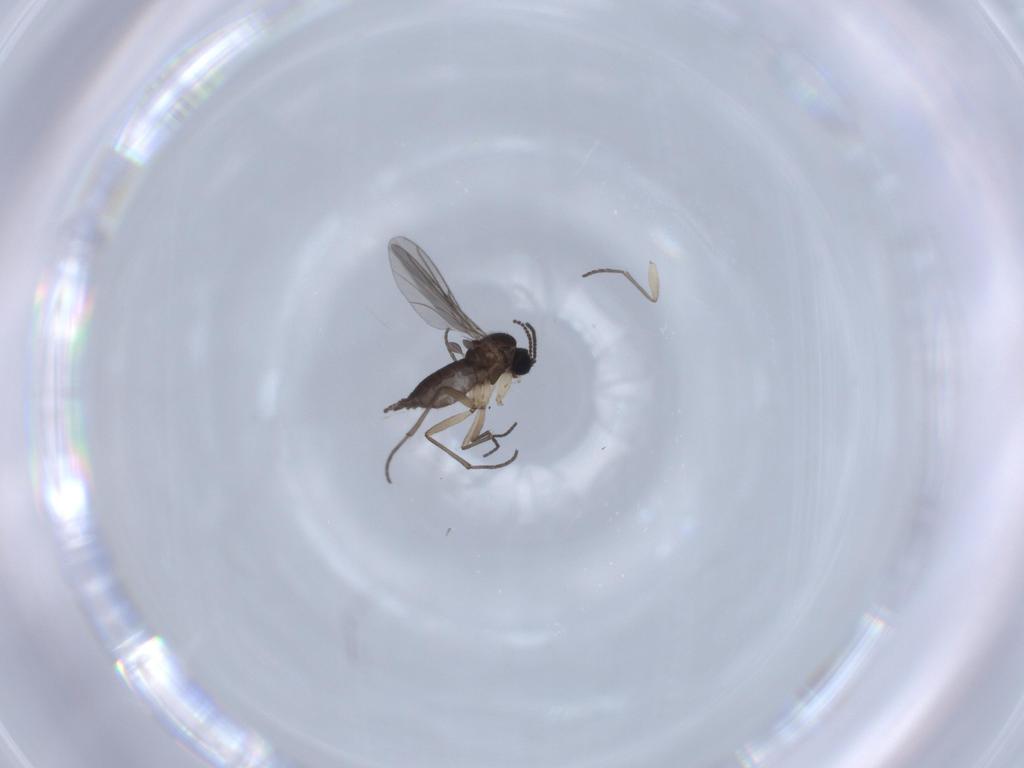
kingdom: Animalia
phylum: Arthropoda
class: Insecta
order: Diptera
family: Sciaridae
